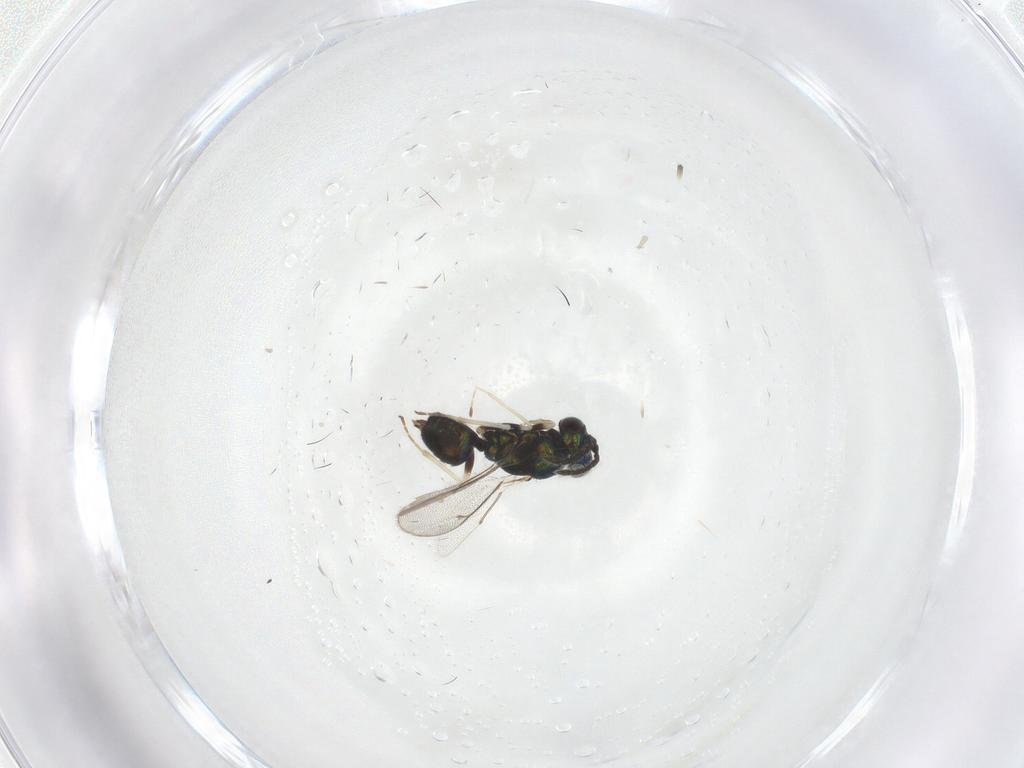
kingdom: Animalia
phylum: Arthropoda
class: Insecta
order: Hymenoptera
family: Eulophidae
